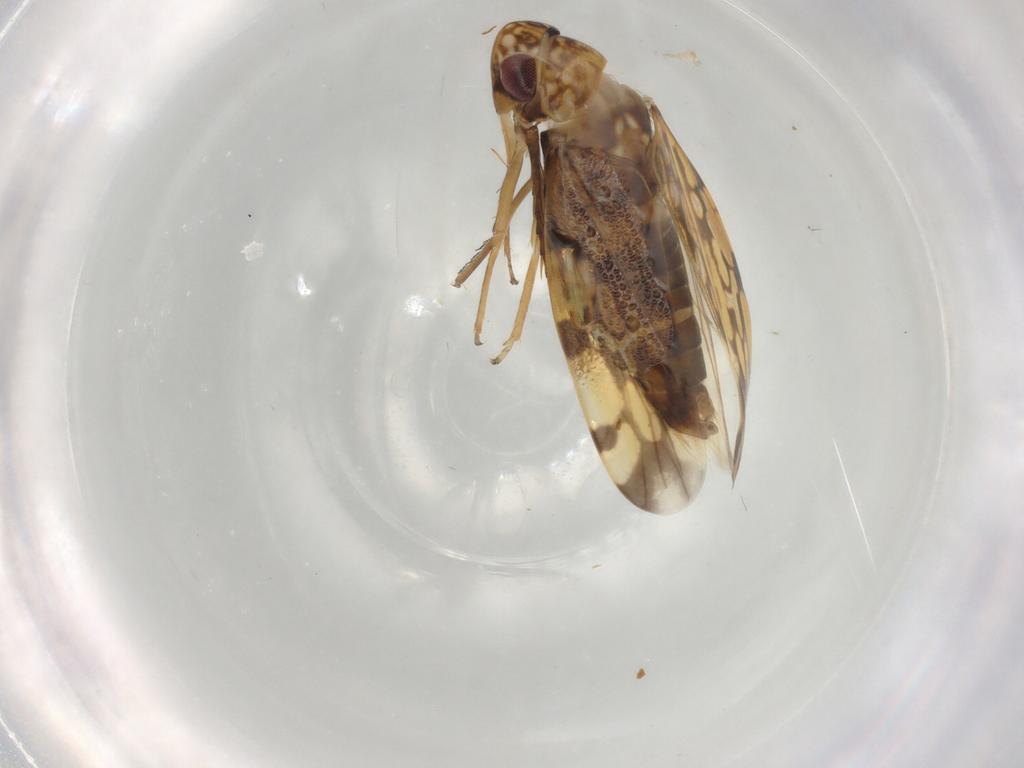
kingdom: Animalia
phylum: Arthropoda
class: Insecta
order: Hemiptera
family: Cicadellidae
